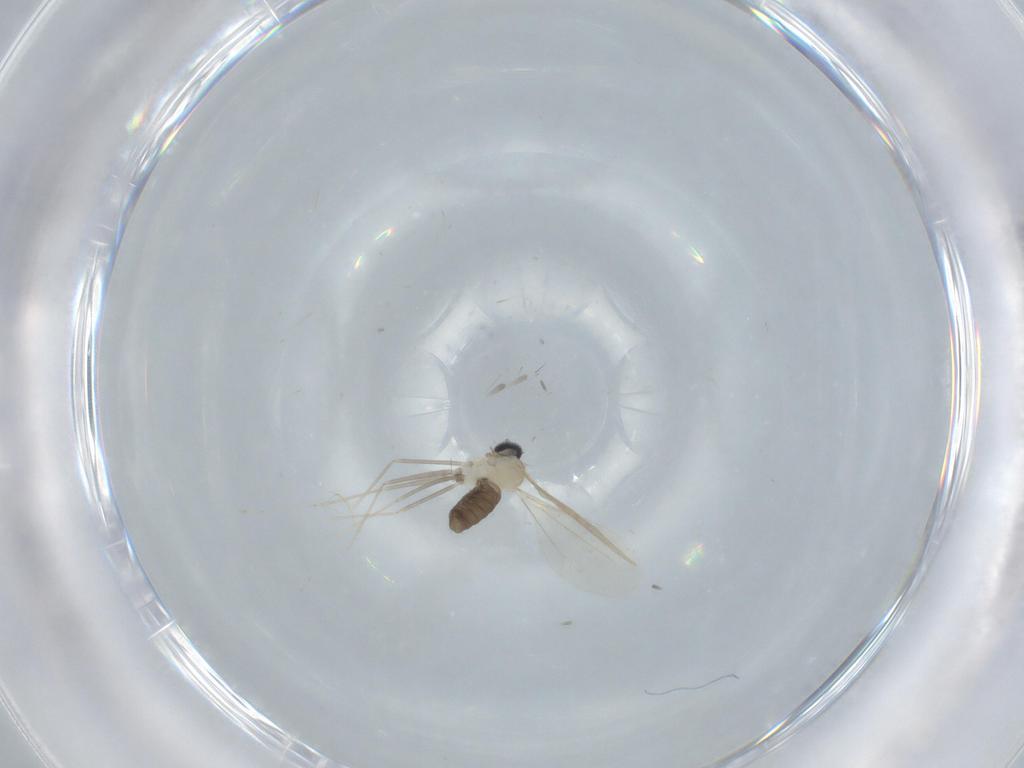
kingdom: Animalia
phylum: Arthropoda
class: Insecta
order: Diptera
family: Cecidomyiidae
